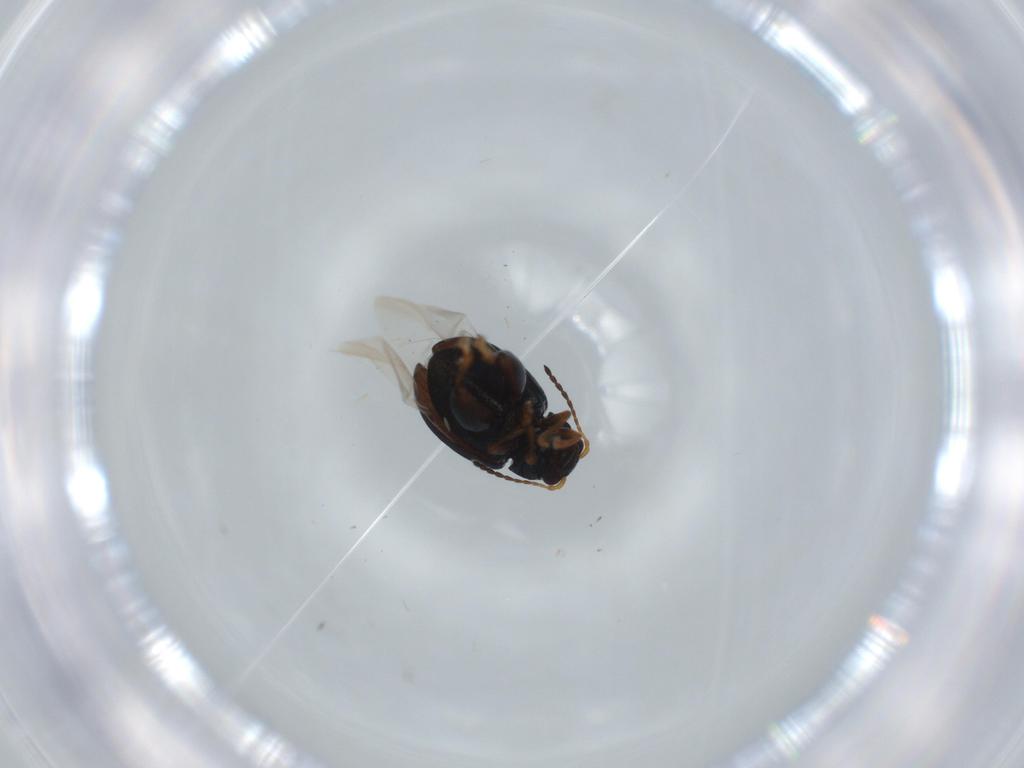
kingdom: Animalia
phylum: Arthropoda
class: Insecta
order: Coleoptera
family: Chrysomelidae
